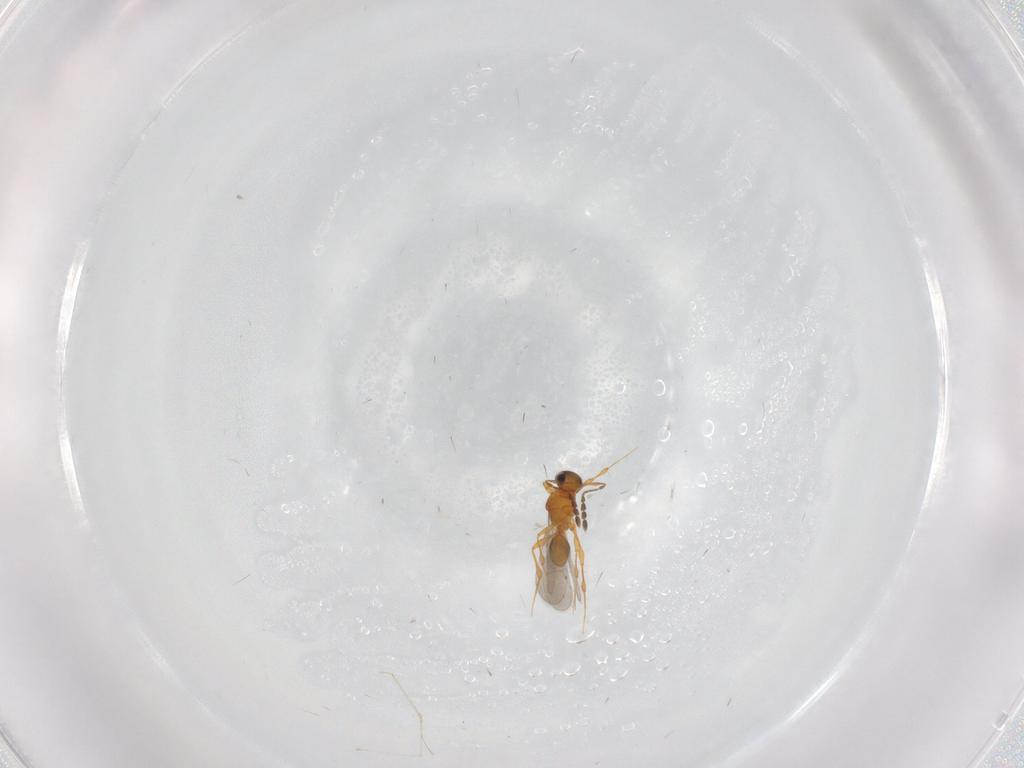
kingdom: Animalia
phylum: Arthropoda
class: Insecta
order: Hymenoptera
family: Platygastridae
